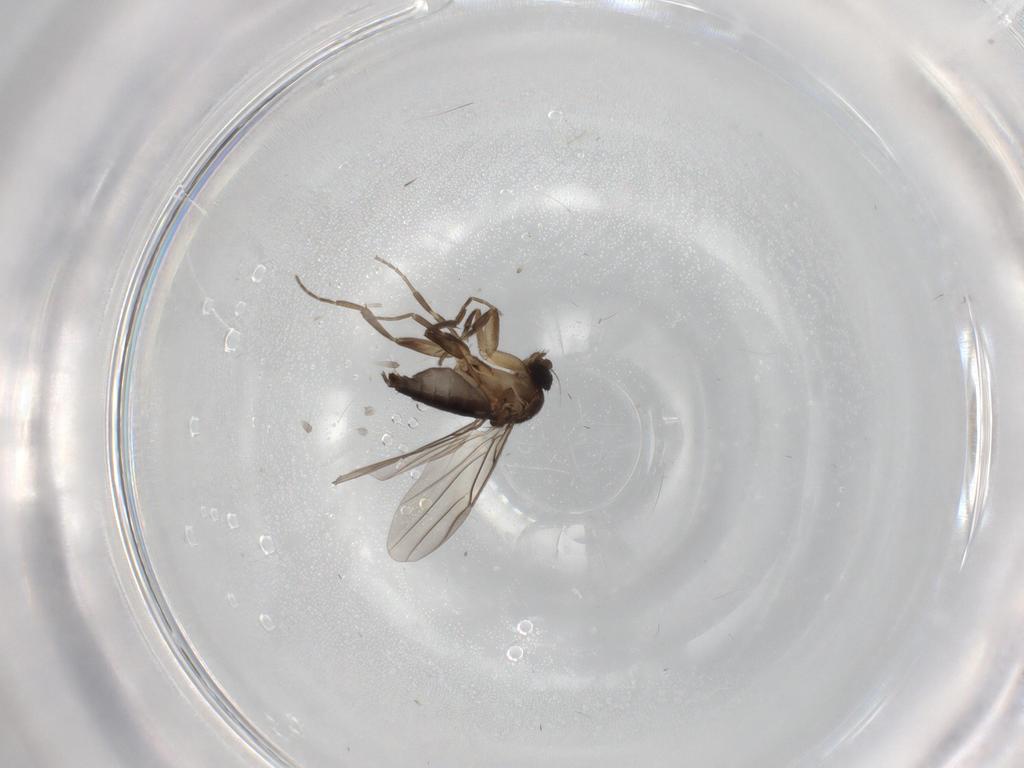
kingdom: Animalia
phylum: Arthropoda
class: Insecta
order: Diptera
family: Phoridae
